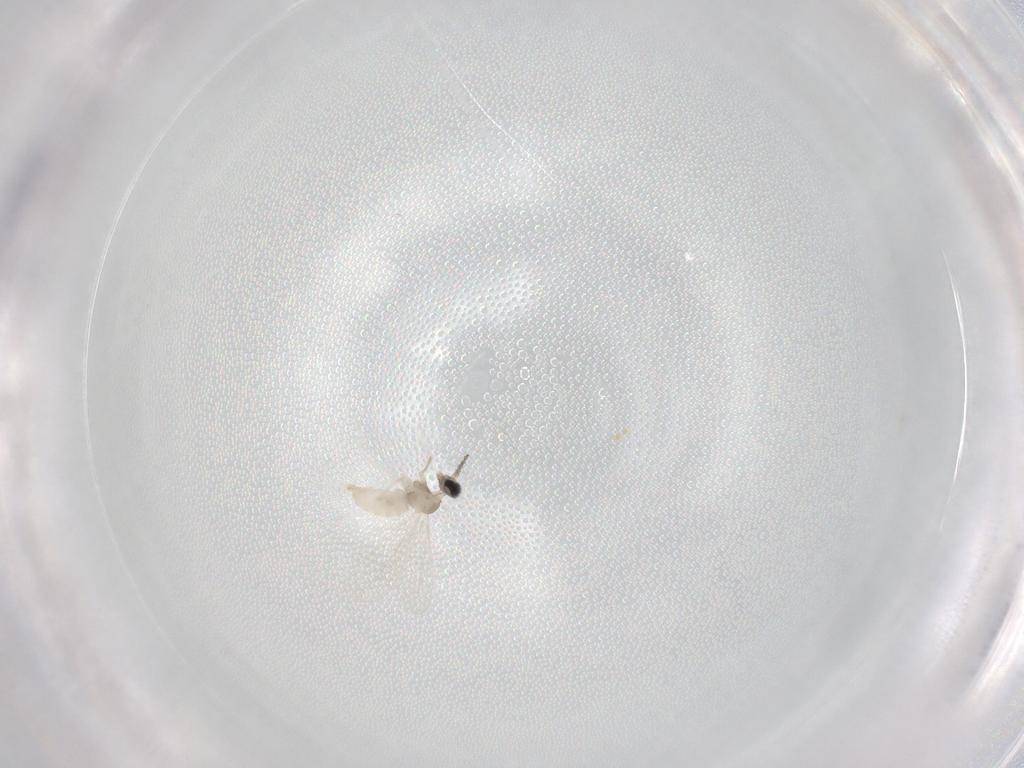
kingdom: Animalia
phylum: Arthropoda
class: Insecta
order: Diptera
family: Cecidomyiidae
